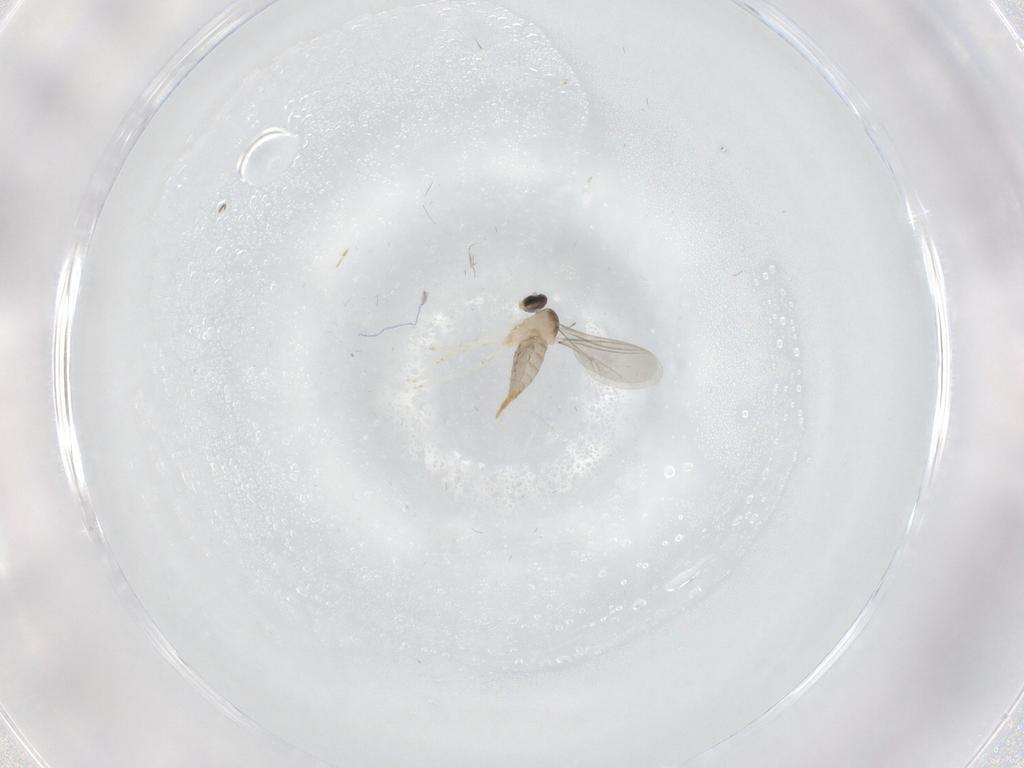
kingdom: Animalia
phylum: Arthropoda
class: Insecta
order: Diptera
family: Cecidomyiidae
